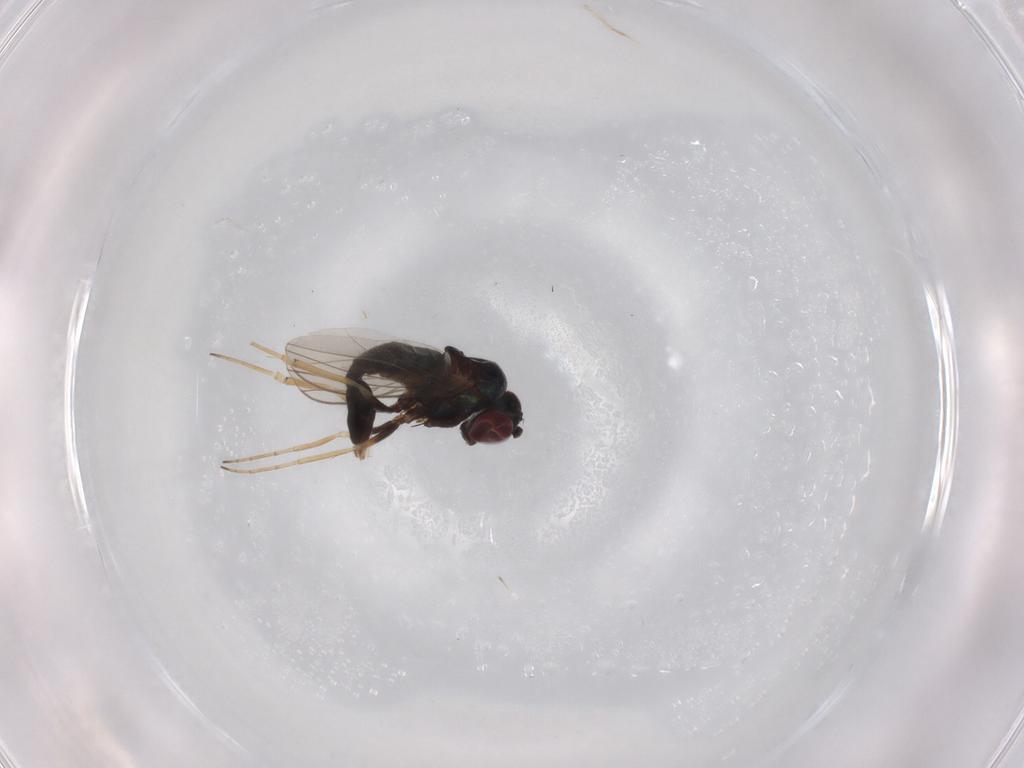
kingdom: Animalia
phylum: Arthropoda
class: Insecta
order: Diptera
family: Dolichopodidae
